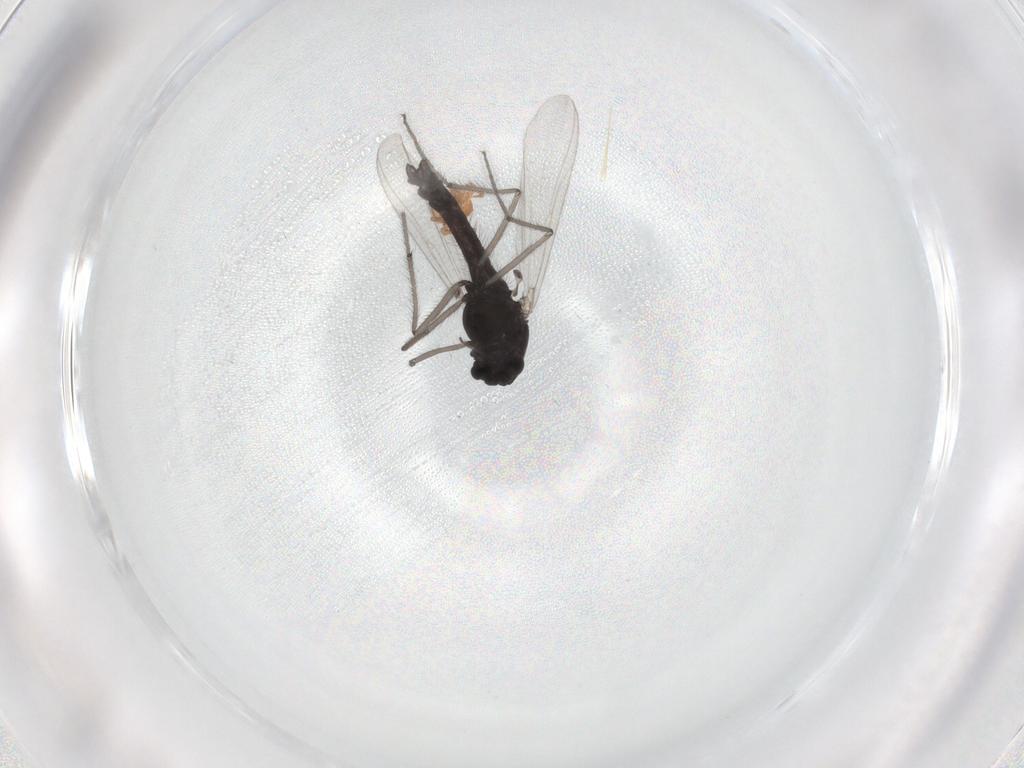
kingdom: Animalia
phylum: Arthropoda
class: Insecta
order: Diptera
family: Sciaridae
